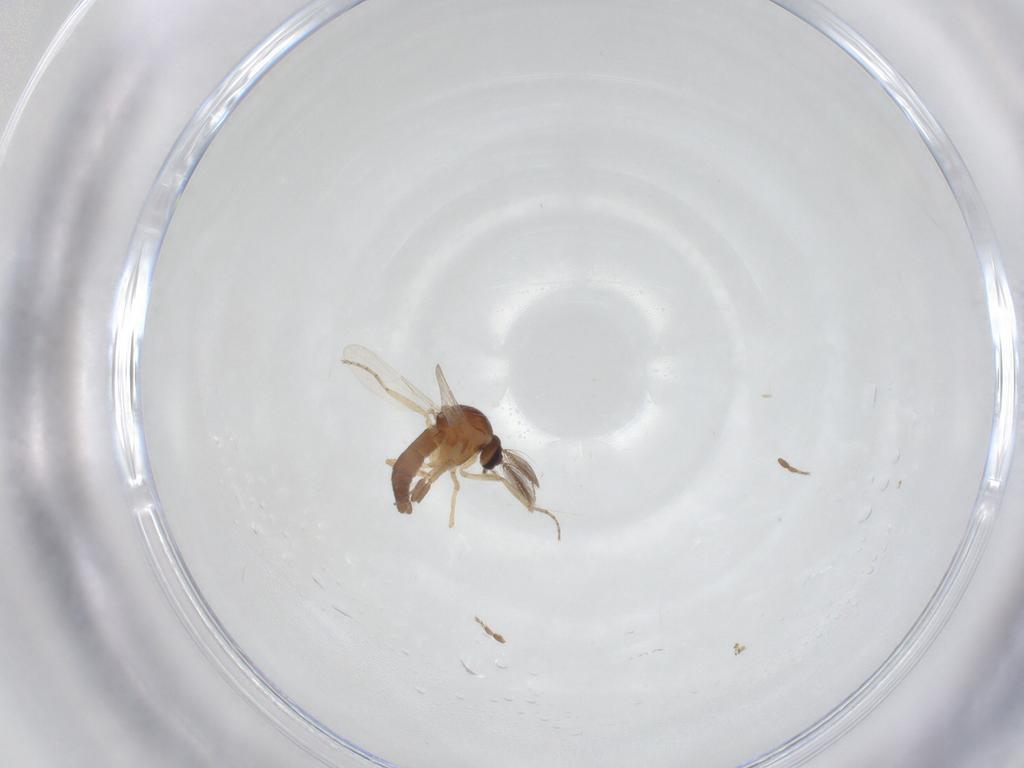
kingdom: Animalia
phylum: Arthropoda
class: Insecta
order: Diptera
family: Ceratopogonidae
